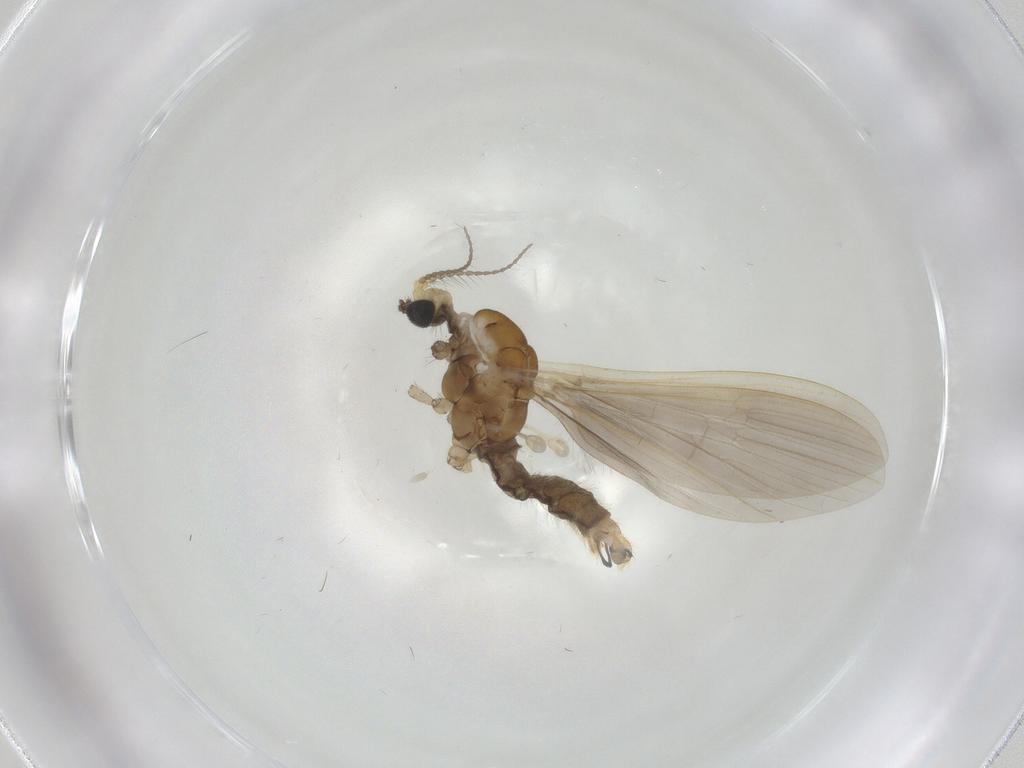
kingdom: Animalia
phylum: Arthropoda
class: Insecta
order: Diptera
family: Limoniidae
